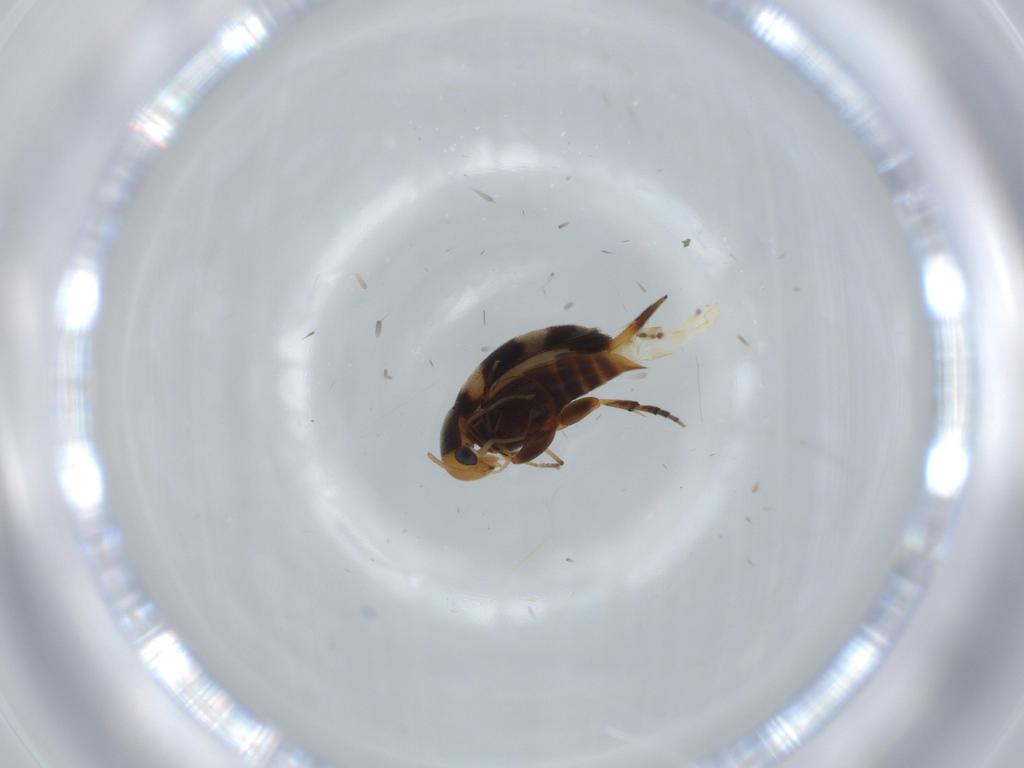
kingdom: Animalia
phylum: Arthropoda
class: Insecta
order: Coleoptera
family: Mordellidae
